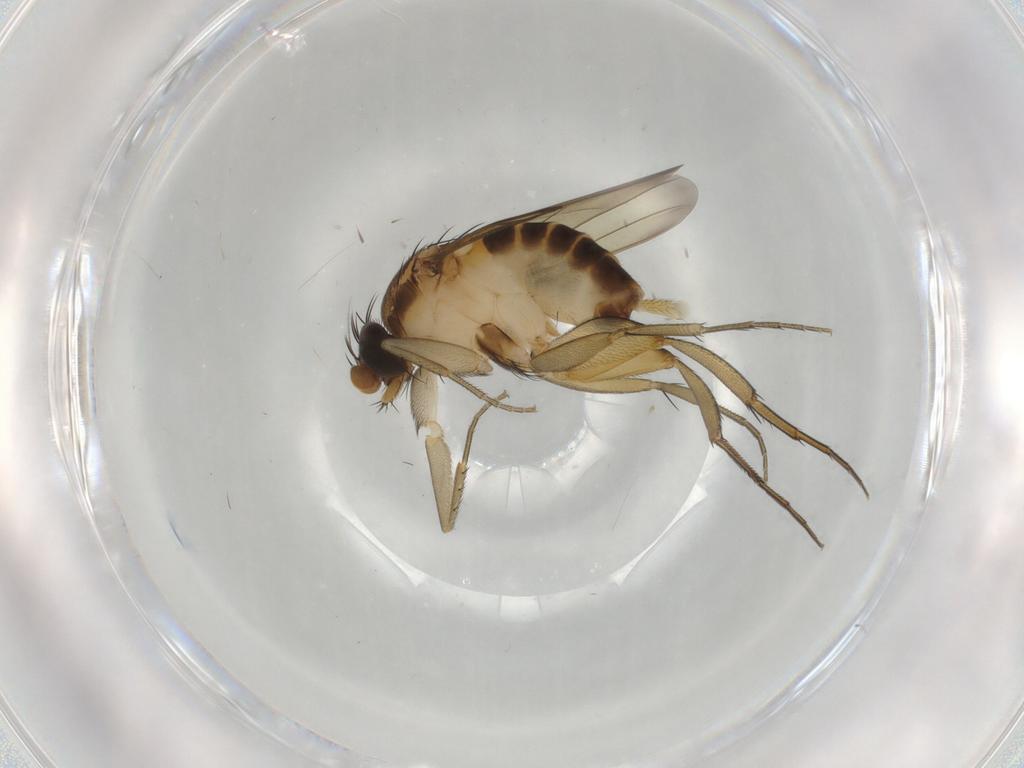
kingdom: Animalia
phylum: Arthropoda
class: Insecta
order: Diptera
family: Phoridae
